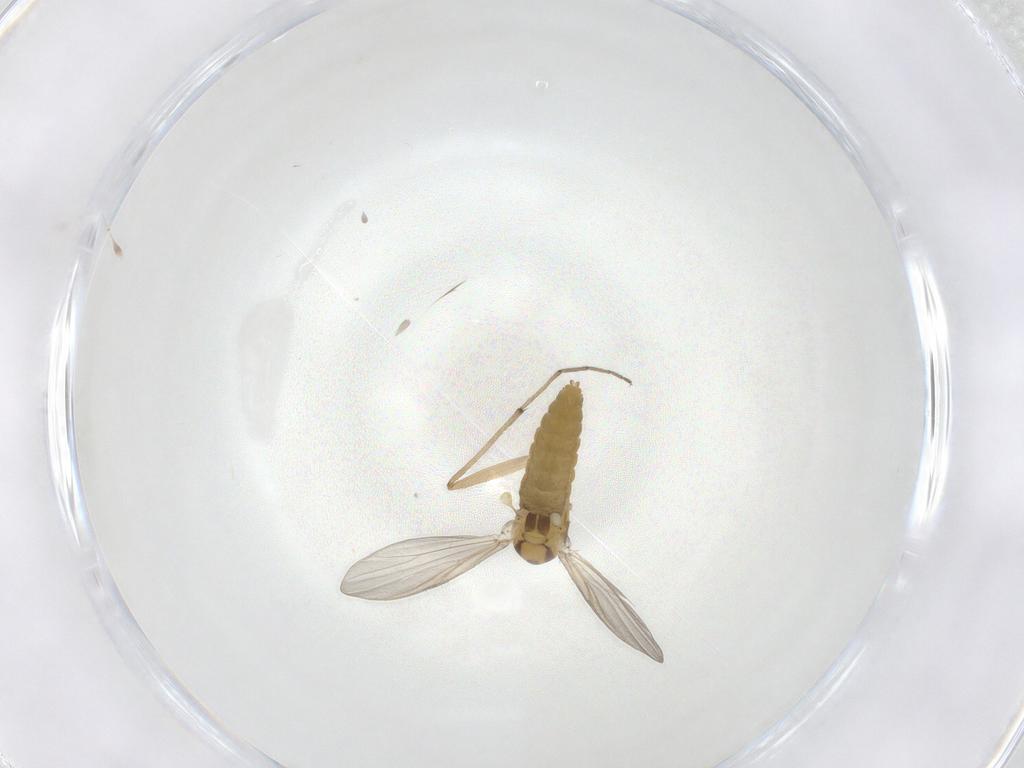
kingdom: Animalia
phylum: Arthropoda
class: Insecta
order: Diptera
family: Chironomidae
